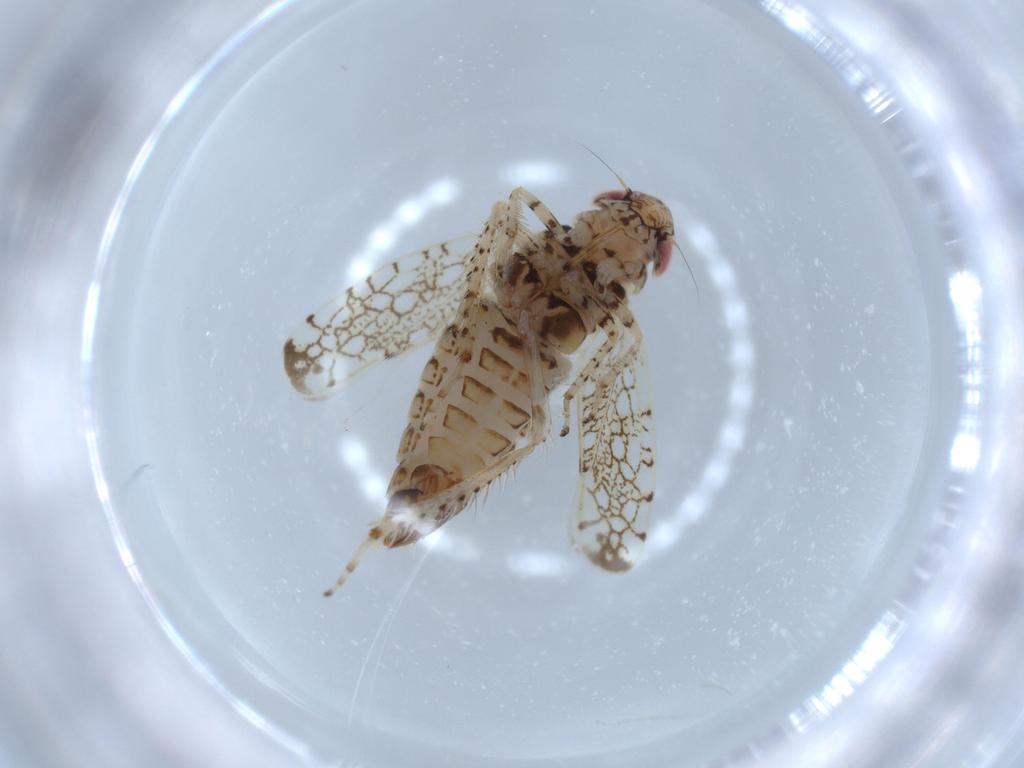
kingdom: Animalia
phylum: Arthropoda
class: Insecta
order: Hemiptera
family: Cicadellidae
